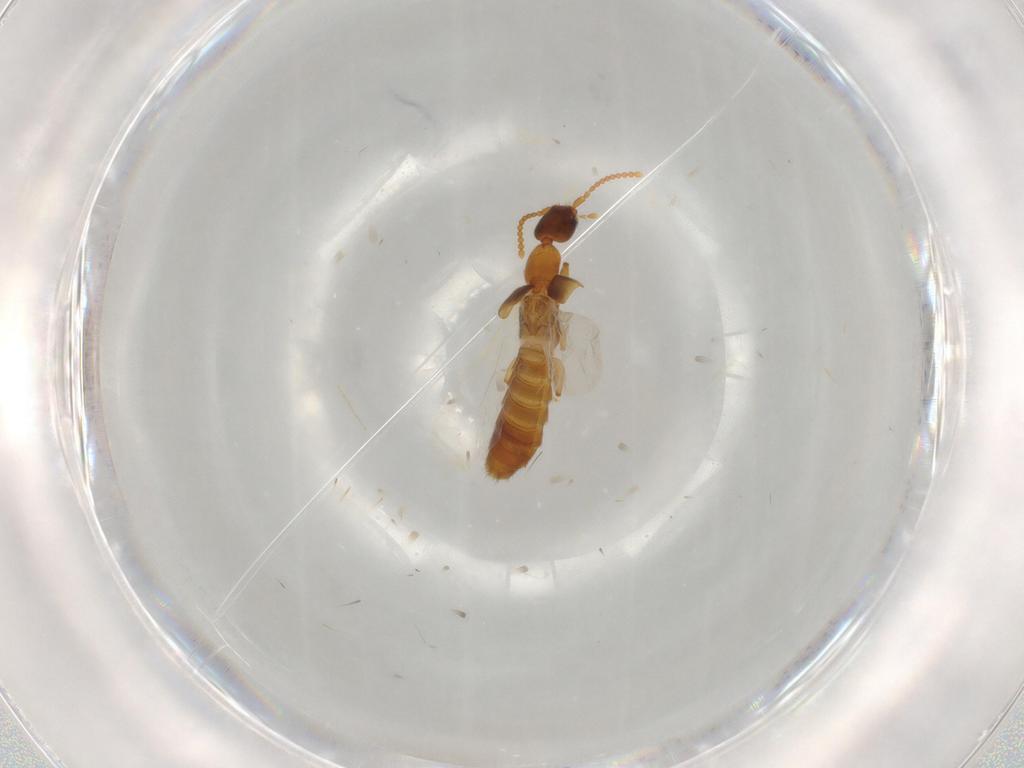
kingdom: Animalia
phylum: Arthropoda
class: Insecta
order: Coleoptera
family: Staphylinidae
